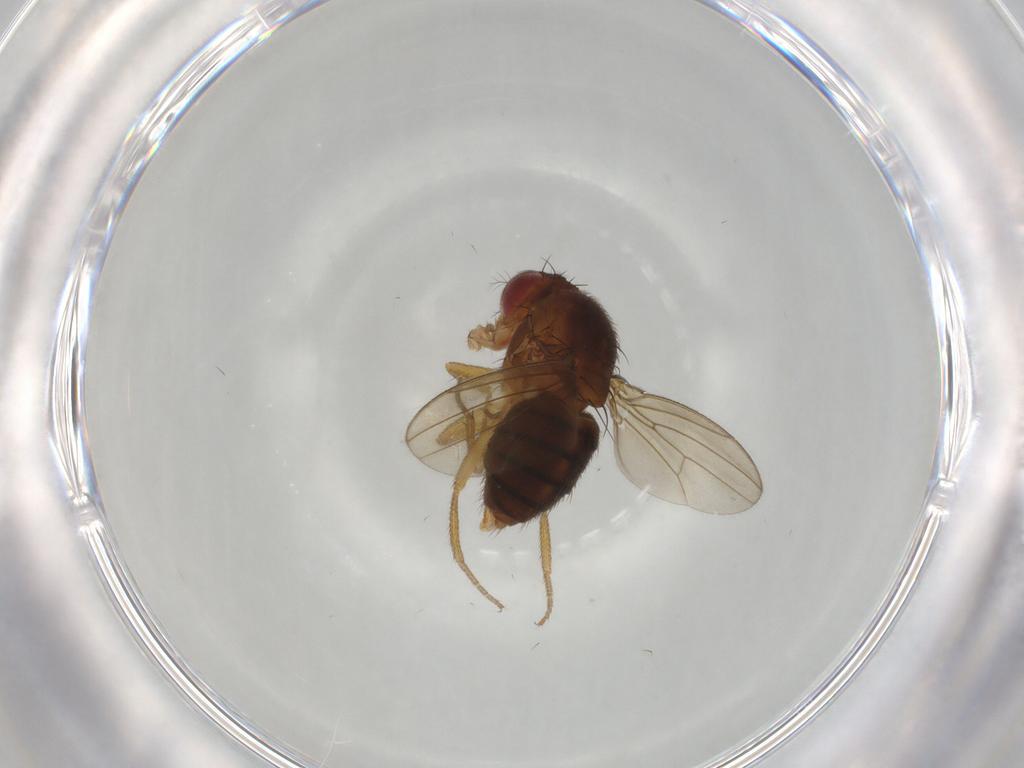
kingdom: Animalia
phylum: Arthropoda
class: Insecta
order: Diptera
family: Drosophilidae
